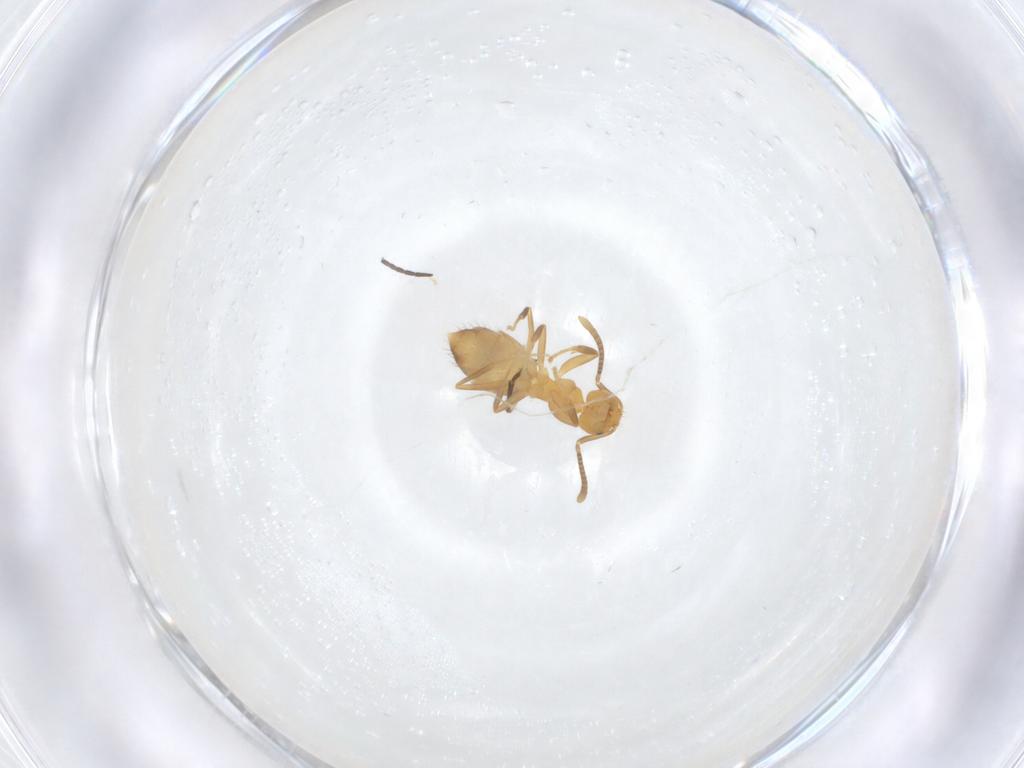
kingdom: Animalia
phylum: Arthropoda
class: Insecta
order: Hymenoptera
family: Formicidae
